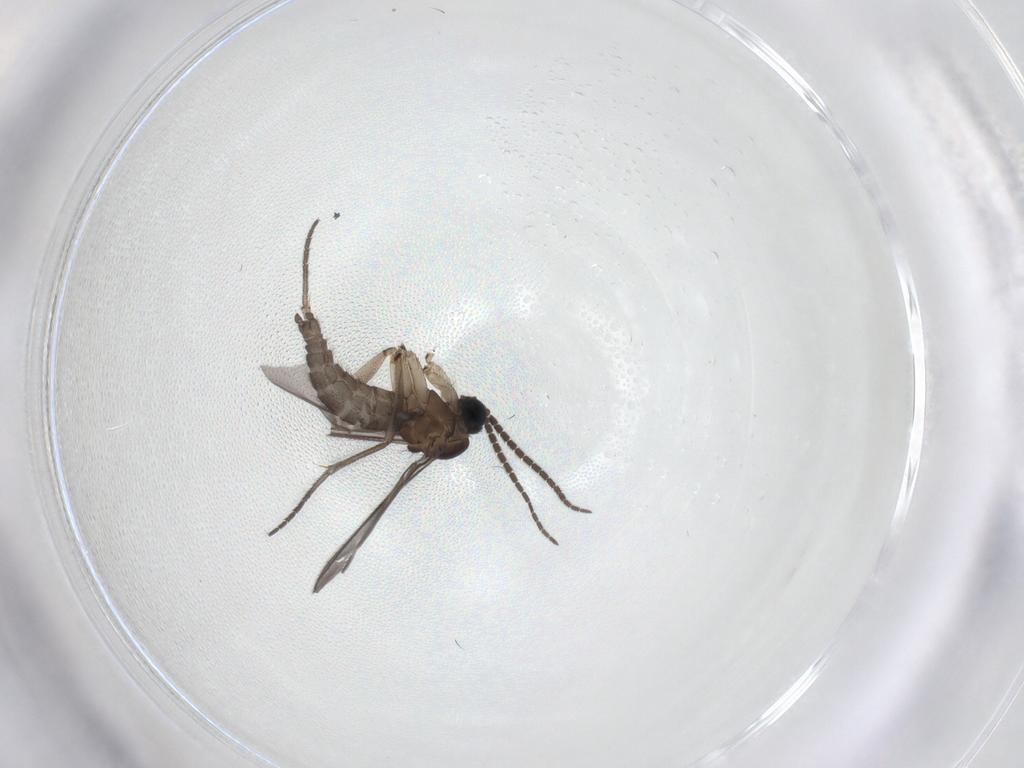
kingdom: Animalia
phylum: Arthropoda
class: Insecta
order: Diptera
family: Sciaridae
